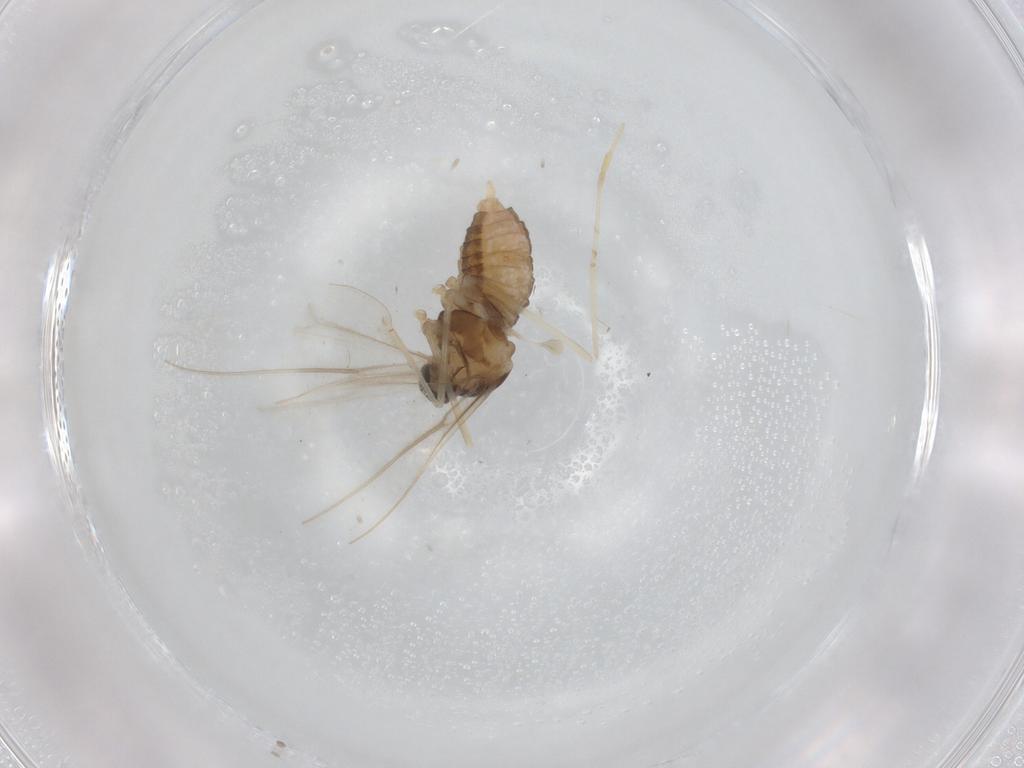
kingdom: Animalia
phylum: Arthropoda
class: Insecta
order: Diptera
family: Cecidomyiidae
